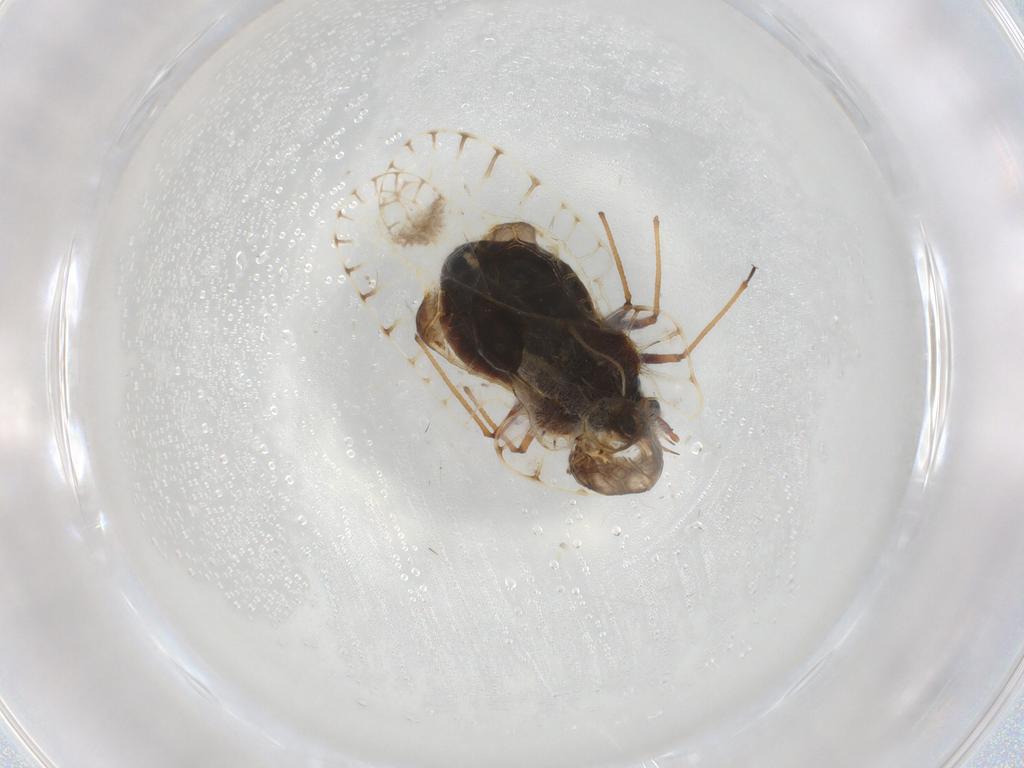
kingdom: Animalia
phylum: Arthropoda
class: Insecta
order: Hemiptera
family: Tingidae
